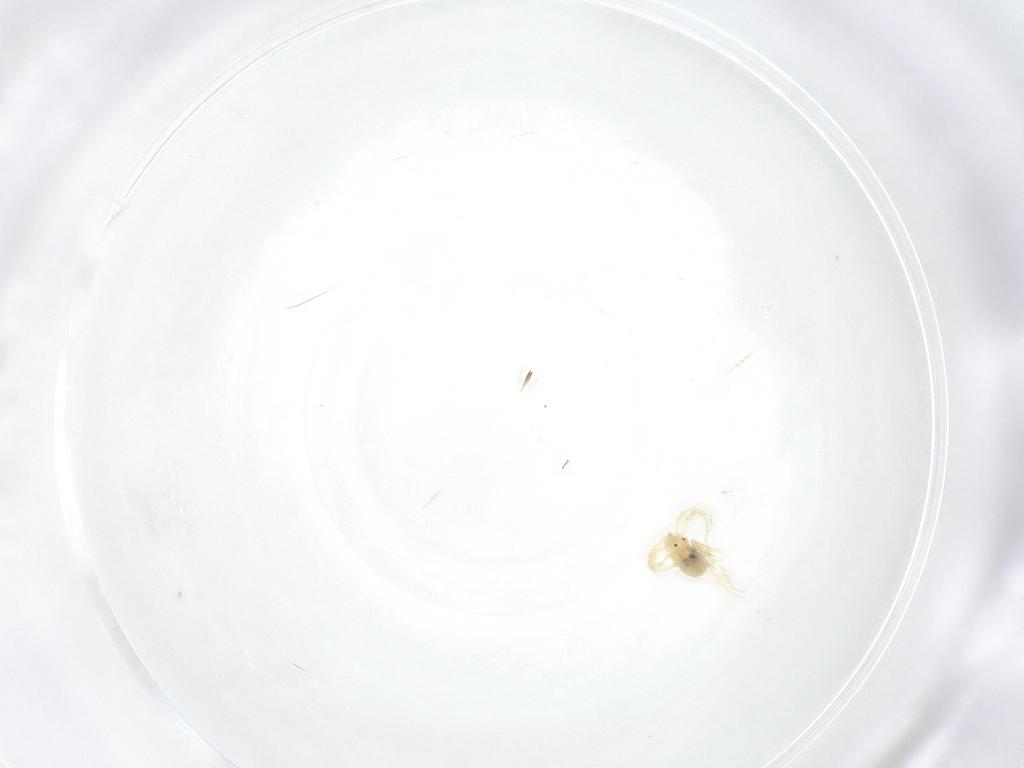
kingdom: Animalia
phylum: Arthropoda
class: Arachnida
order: Trombidiformes
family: Anystidae
